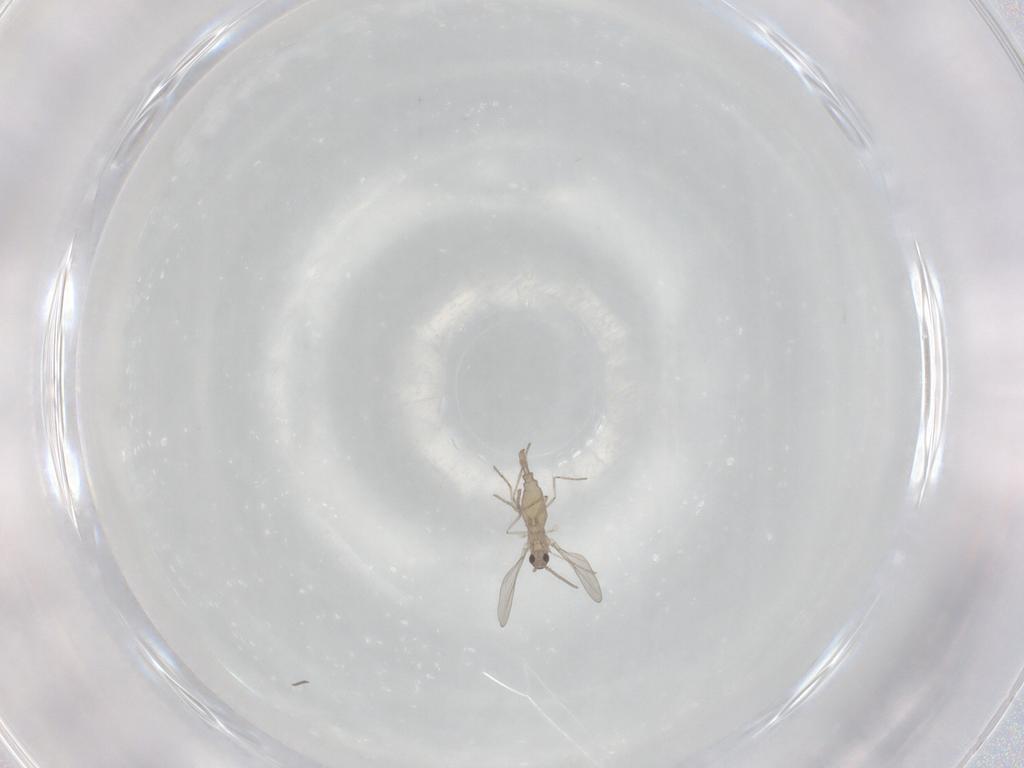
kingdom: Animalia
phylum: Arthropoda
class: Insecta
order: Diptera
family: Cecidomyiidae
